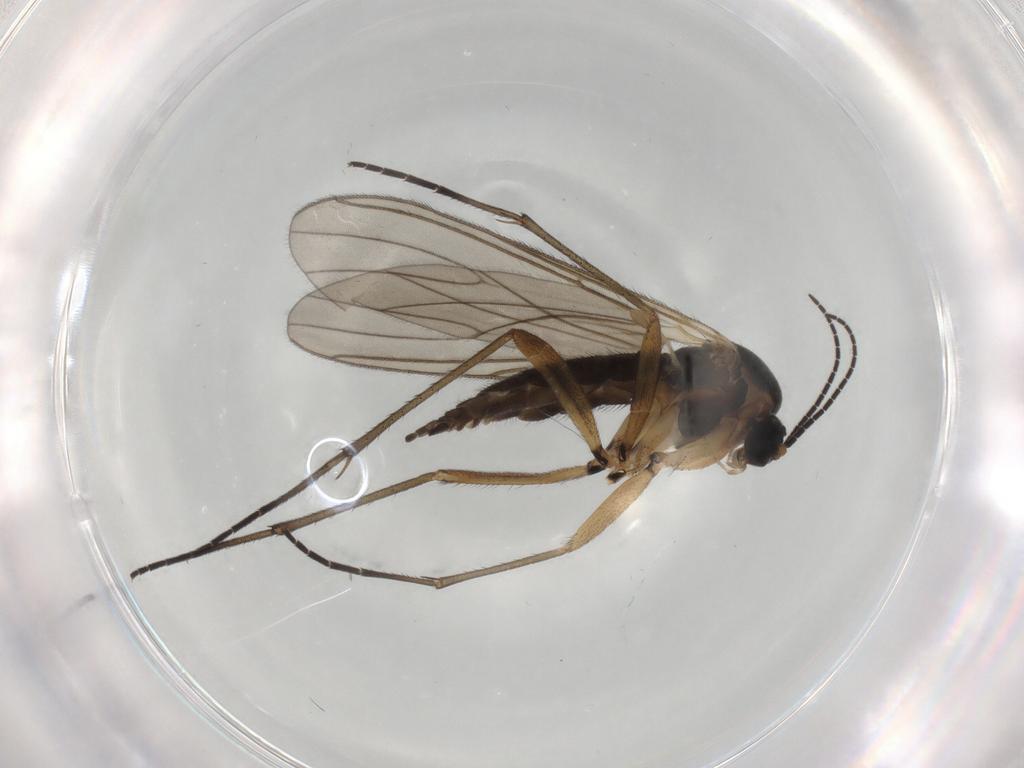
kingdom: Animalia
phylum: Arthropoda
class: Insecta
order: Diptera
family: Sciaridae
